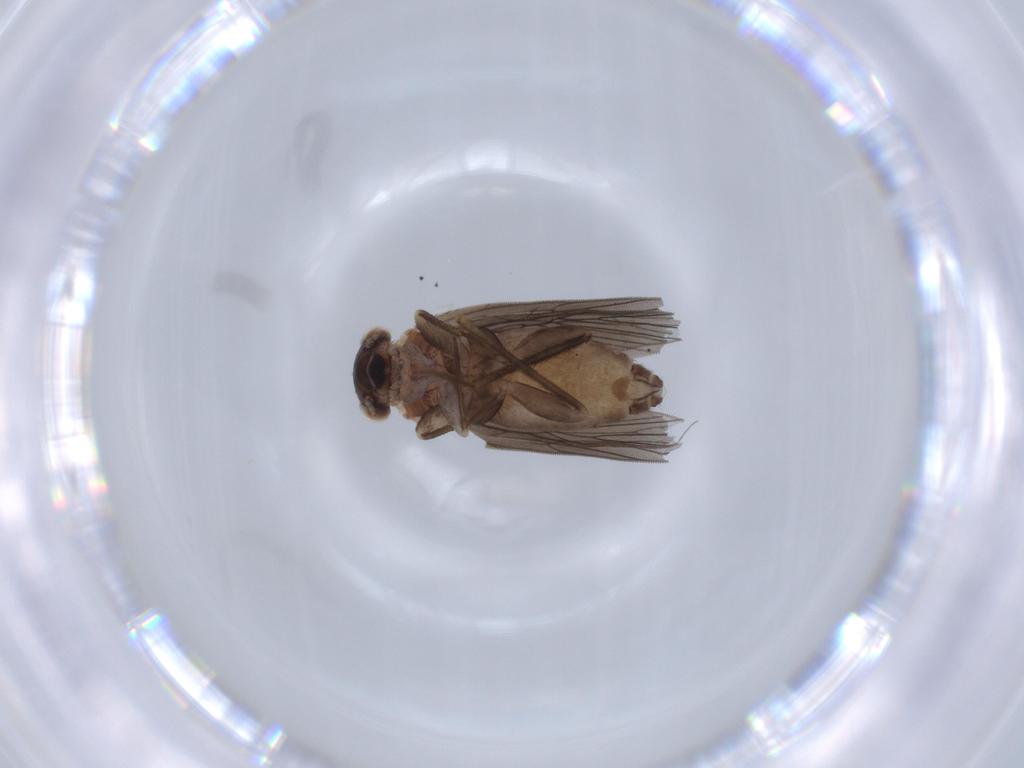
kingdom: Animalia
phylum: Arthropoda
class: Insecta
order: Psocodea
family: Lepidopsocidae
